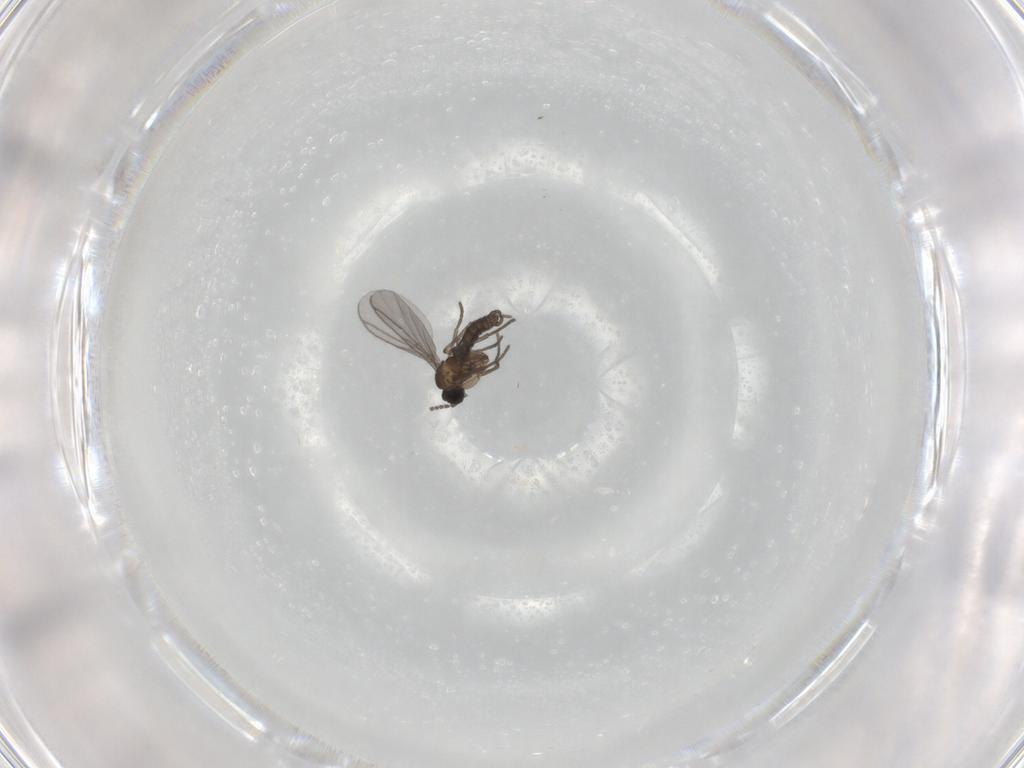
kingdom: Animalia
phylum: Arthropoda
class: Insecta
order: Diptera
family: Chironomidae
